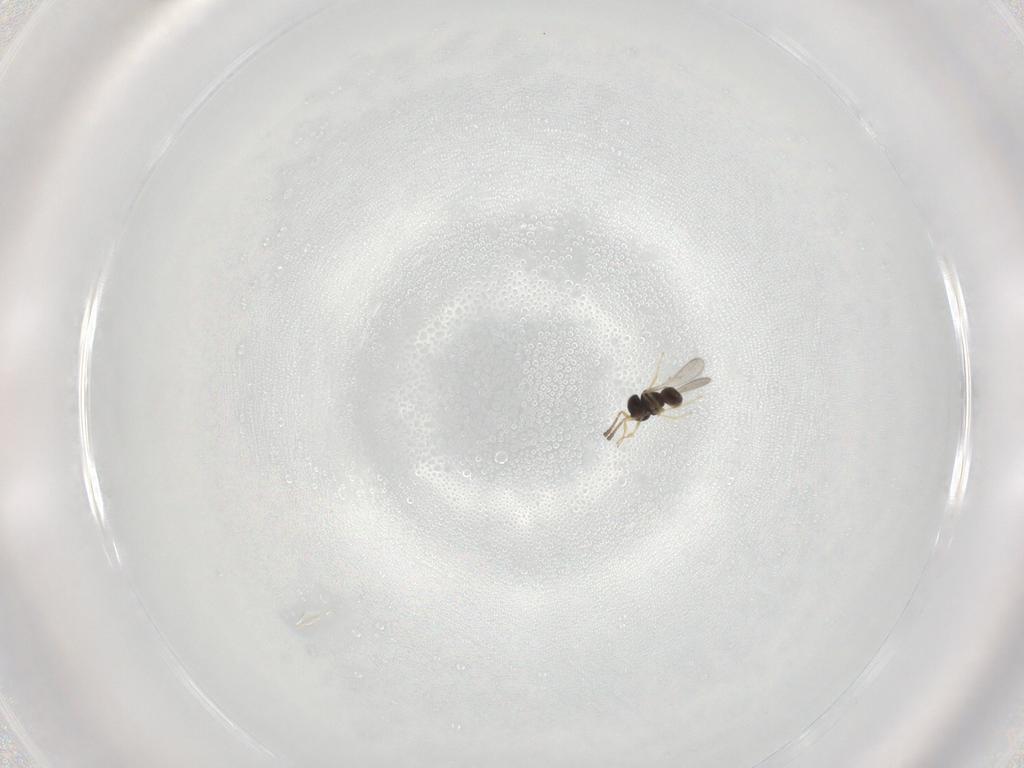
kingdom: Animalia
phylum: Arthropoda
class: Insecta
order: Hymenoptera
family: Scelionidae
